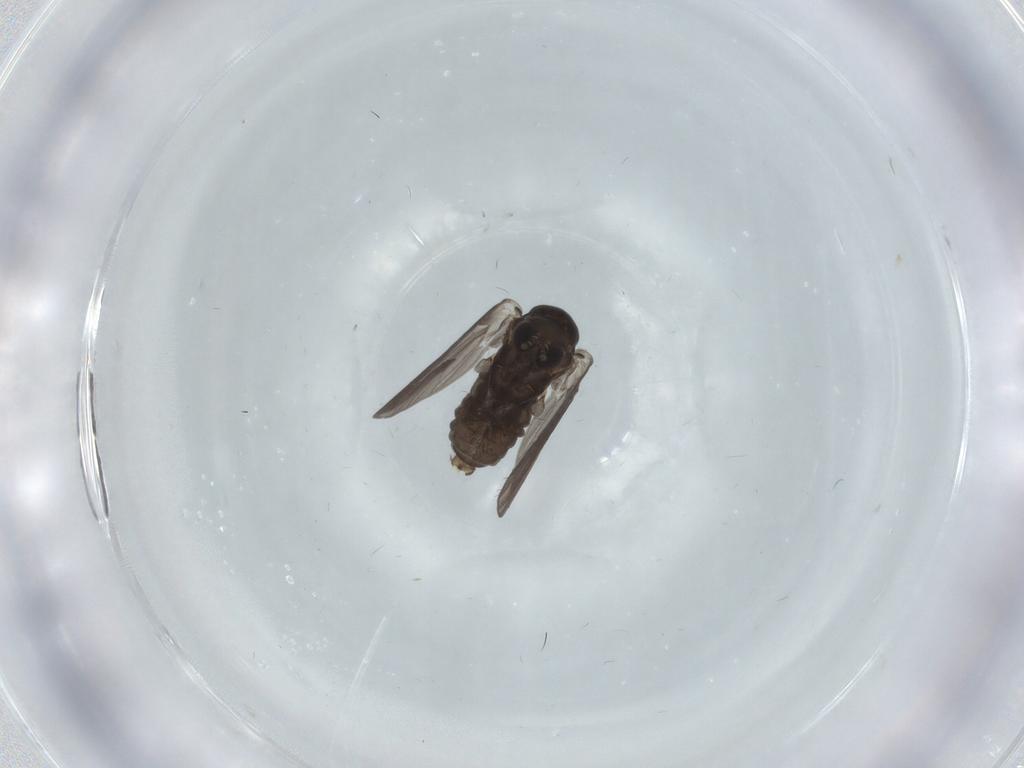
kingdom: Animalia
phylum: Arthropoda
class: Insecta
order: Diptera
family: Psychodidae
